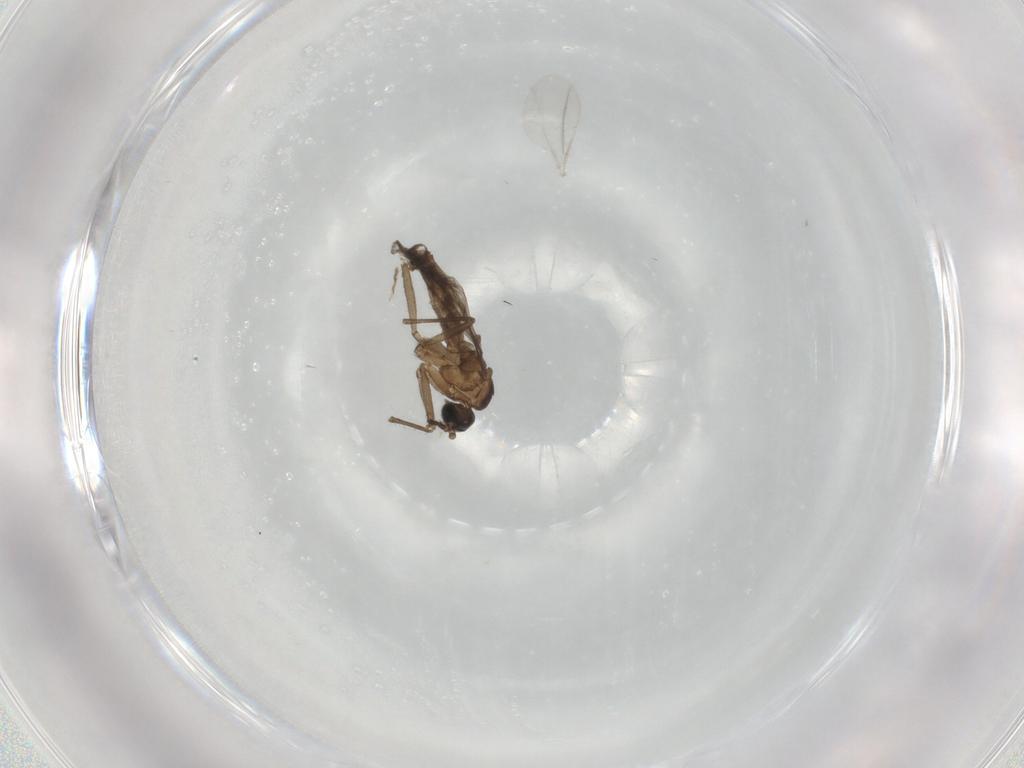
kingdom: Animalia
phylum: Arthropoda
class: Insecta
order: Diptera
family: Sciaridae
